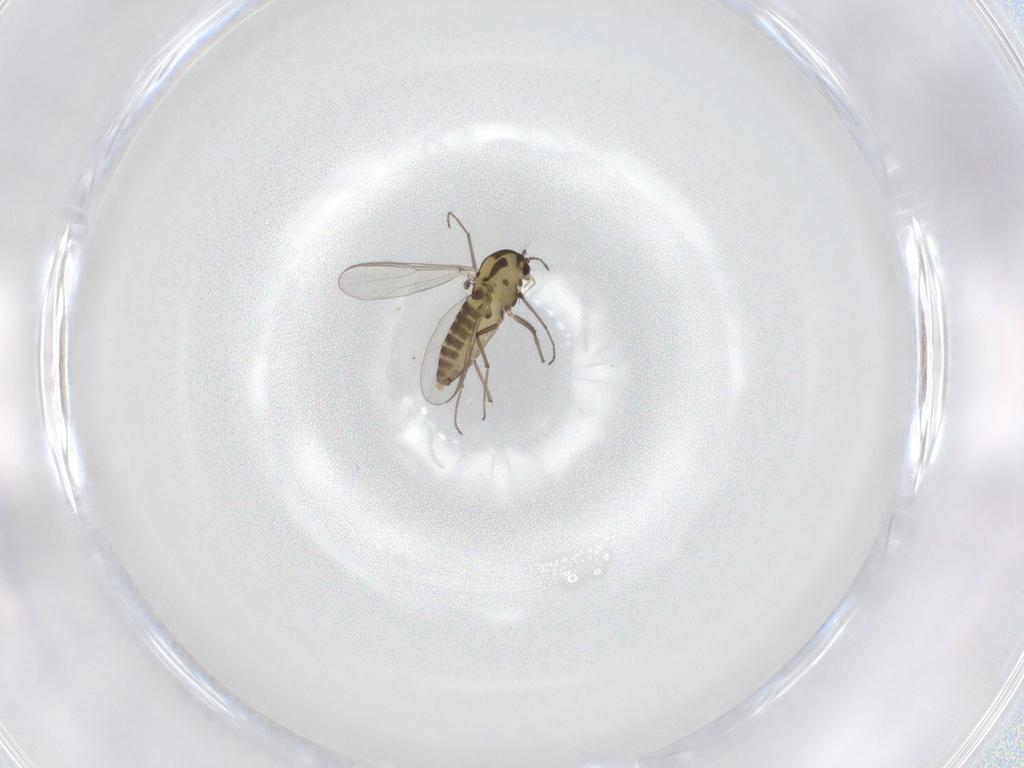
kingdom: Animalia
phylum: Arthropoda
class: Insecta
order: Diptera
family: Chironomidae
